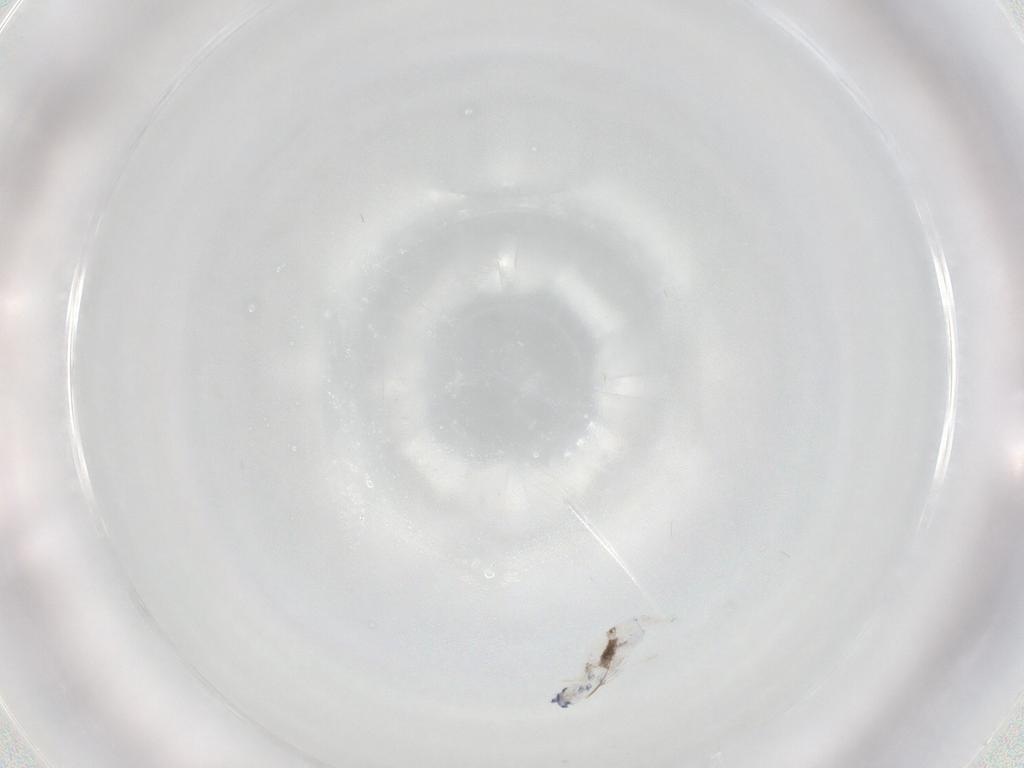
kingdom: Animalia
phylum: Arthropoda
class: Collembola
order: Entomobryomorpha
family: Entomobryidae
